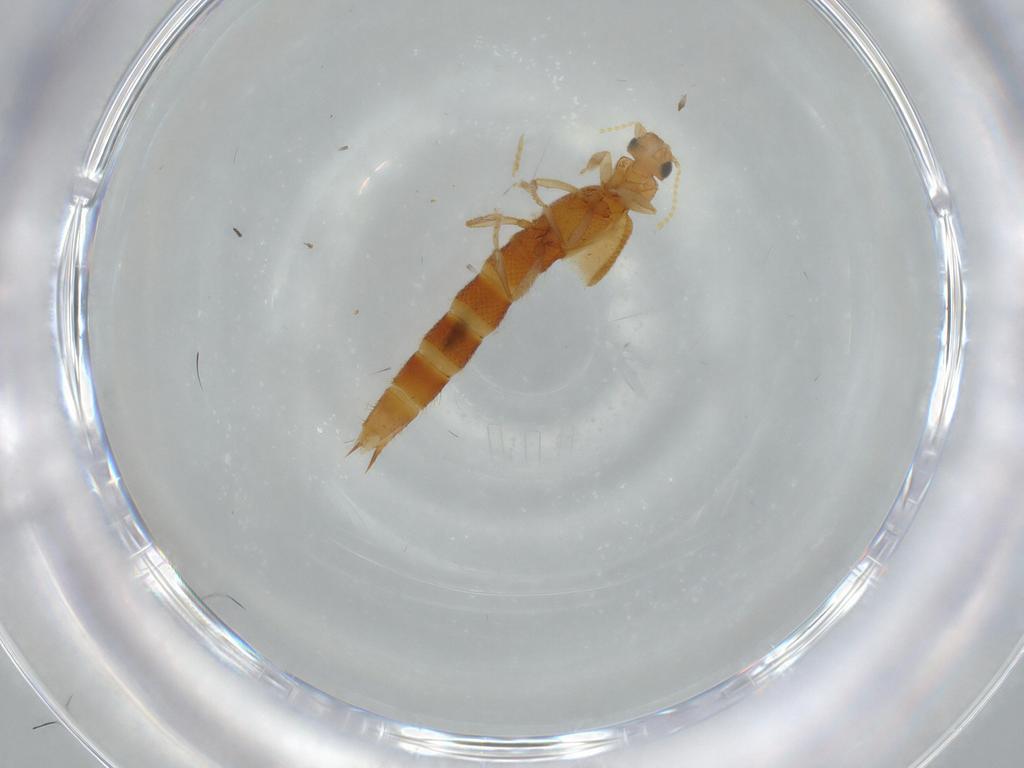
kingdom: Animalia
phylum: Arthropoda
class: Insecta
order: Coleoptera
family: Staphylinidae
